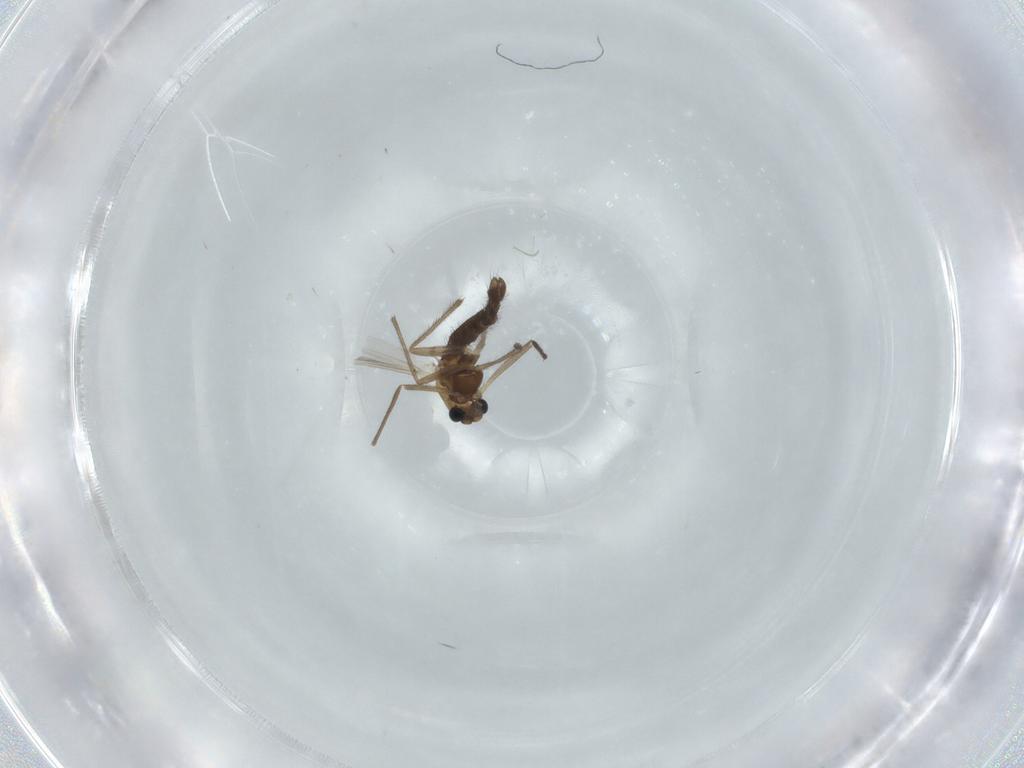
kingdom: Animalia
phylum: Arthropoda
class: Insecta
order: Diptera
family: Chironomidae
